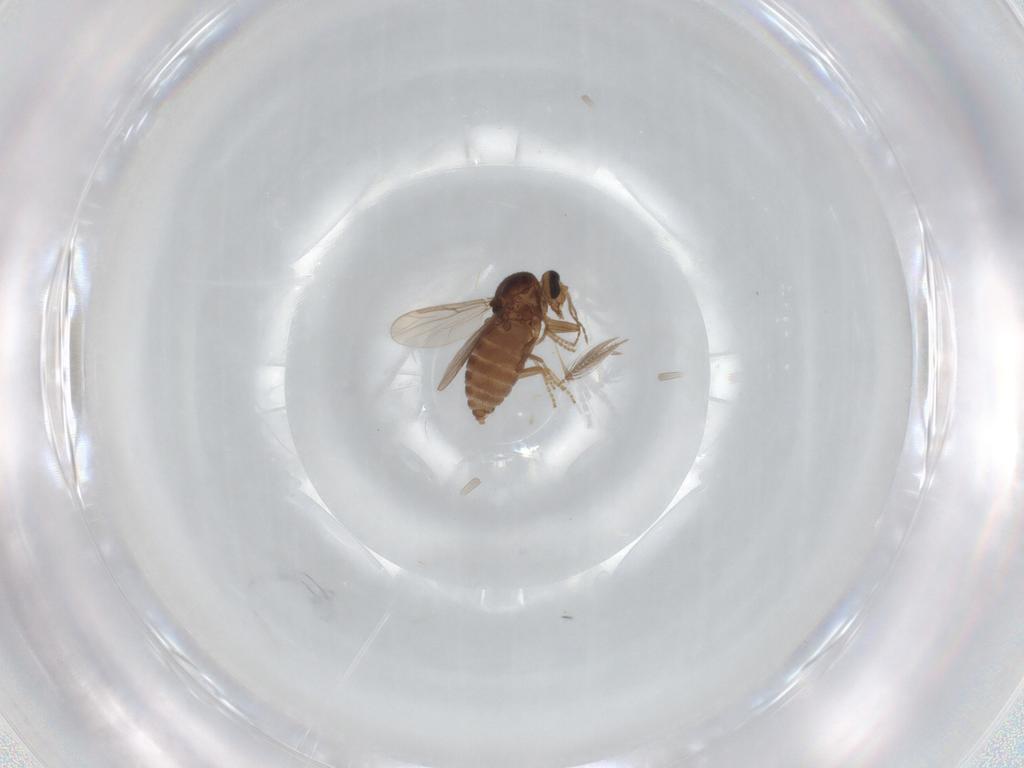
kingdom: Animalia
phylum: Arthropoda
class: Insecta
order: Diptera
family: Ceratopogonidae
